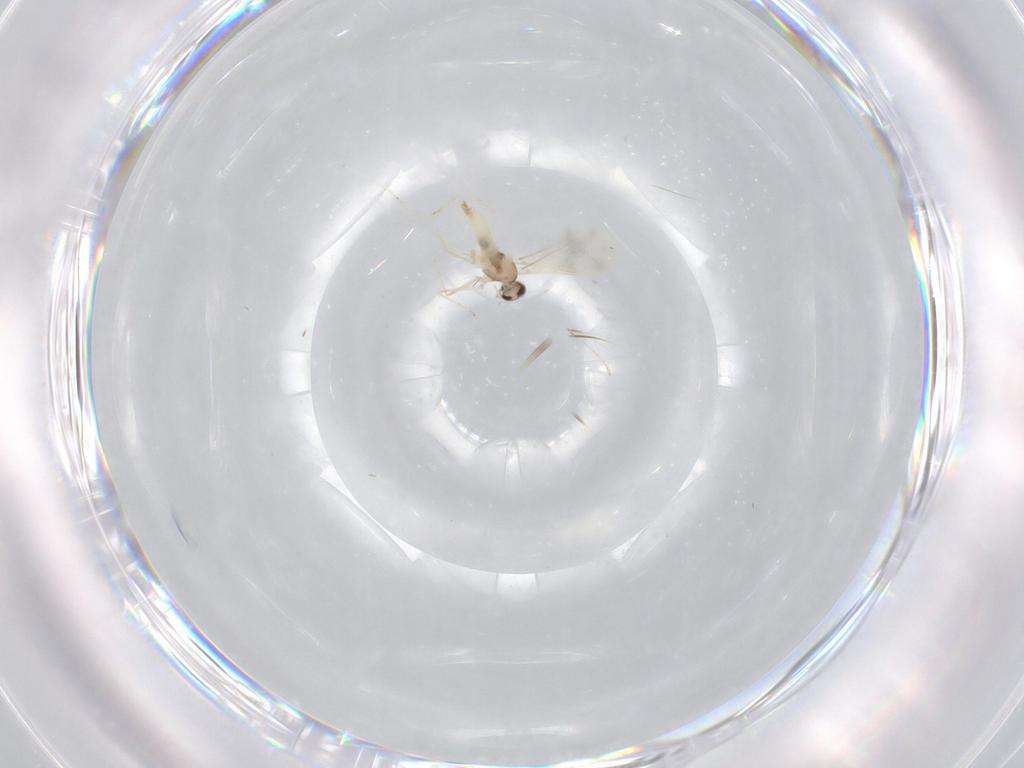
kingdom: Animalia
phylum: Arthropoda
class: Insecta
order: Diptera
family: Cecidomyiidae
